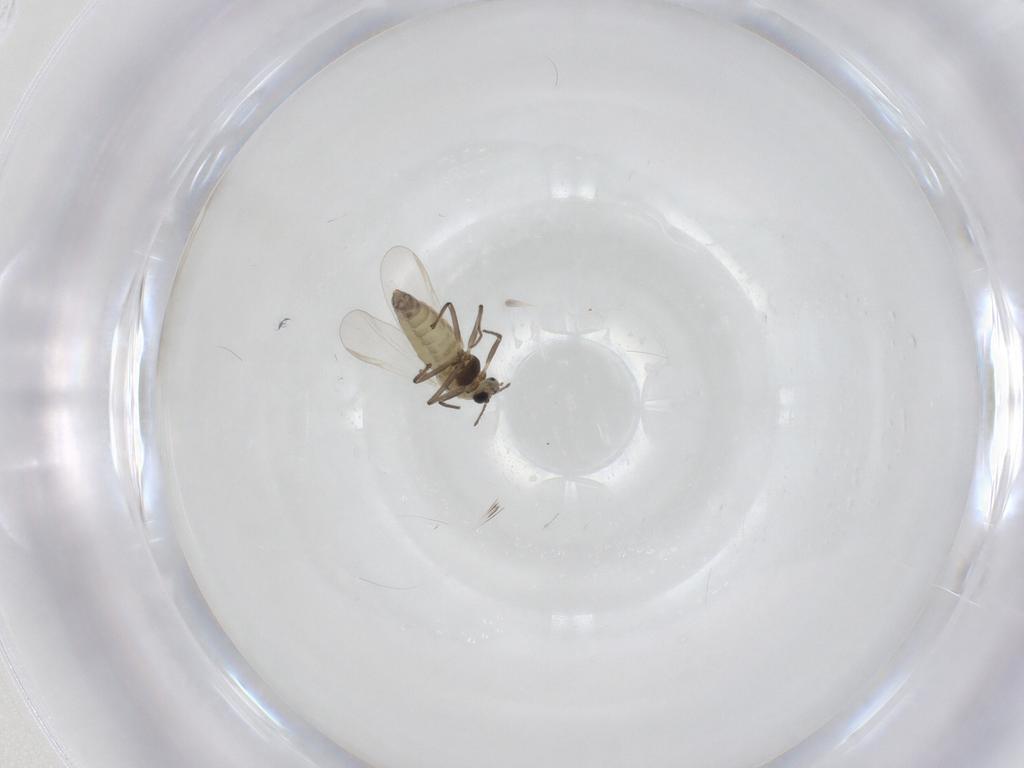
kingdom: Animalia
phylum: Arthropoda
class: Insecta
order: Diptera
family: Chironomidae
